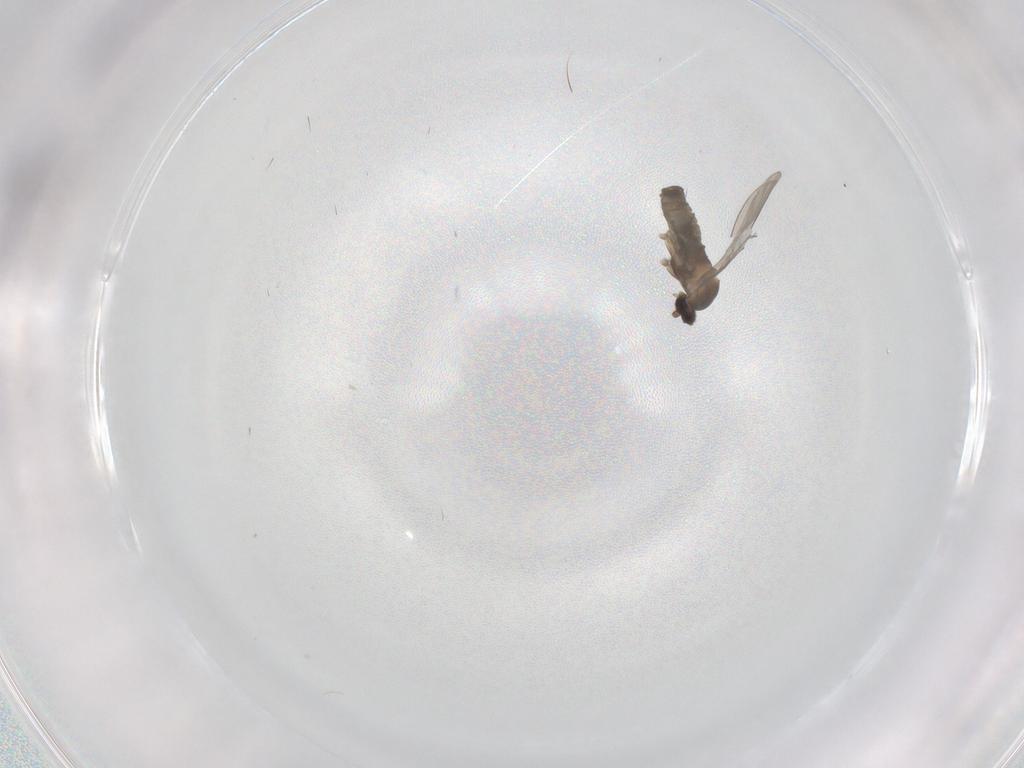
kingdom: Animalia
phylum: Arthropoda
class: Insecta
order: Diptera
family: Phoridae
